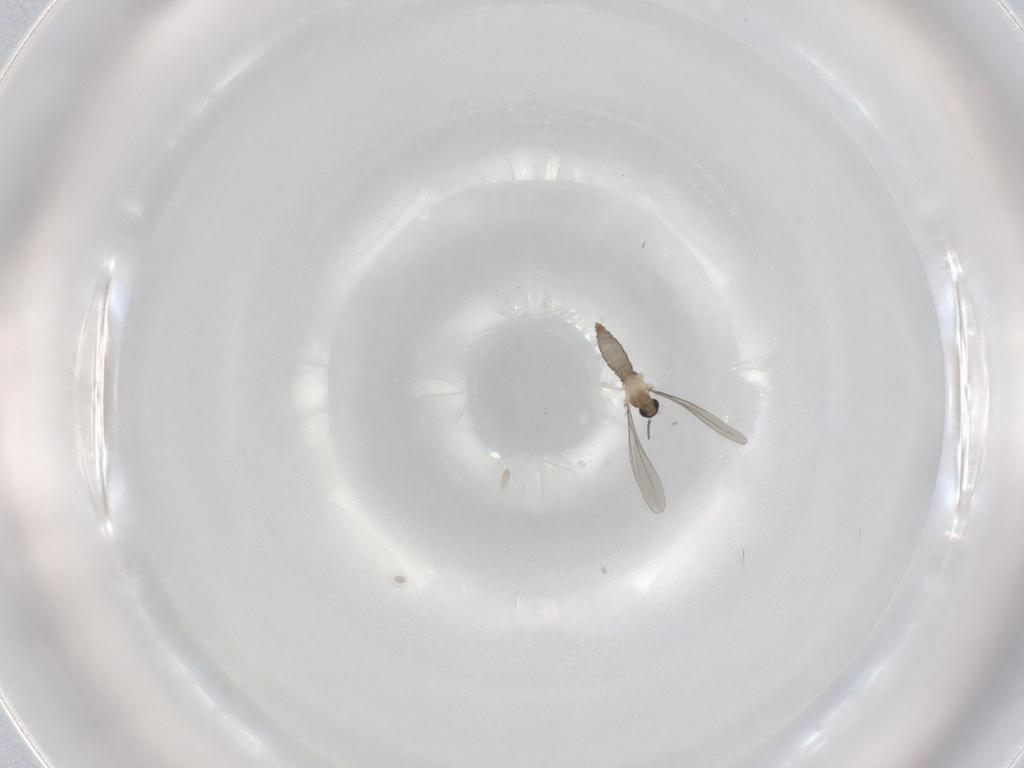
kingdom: Animalia
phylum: Arthropoda
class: Insecta
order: Diptera
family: Cecidomyiidae
